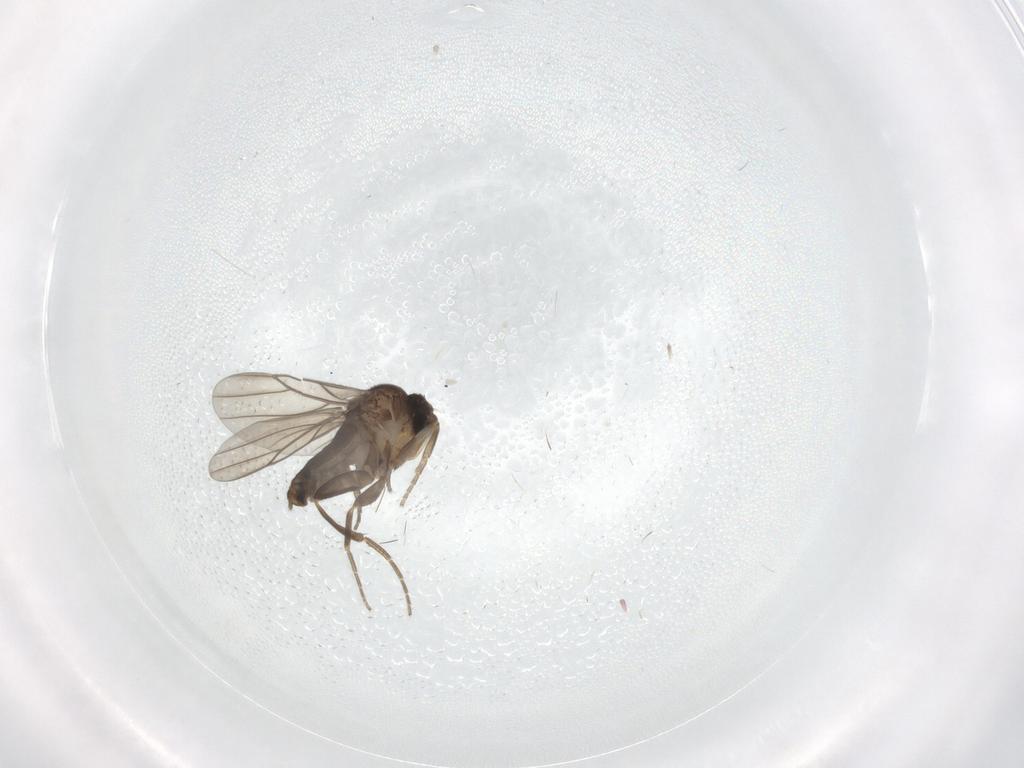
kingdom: Animalia
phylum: Arthropoda
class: Insecta
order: Diptera
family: Phoridae
